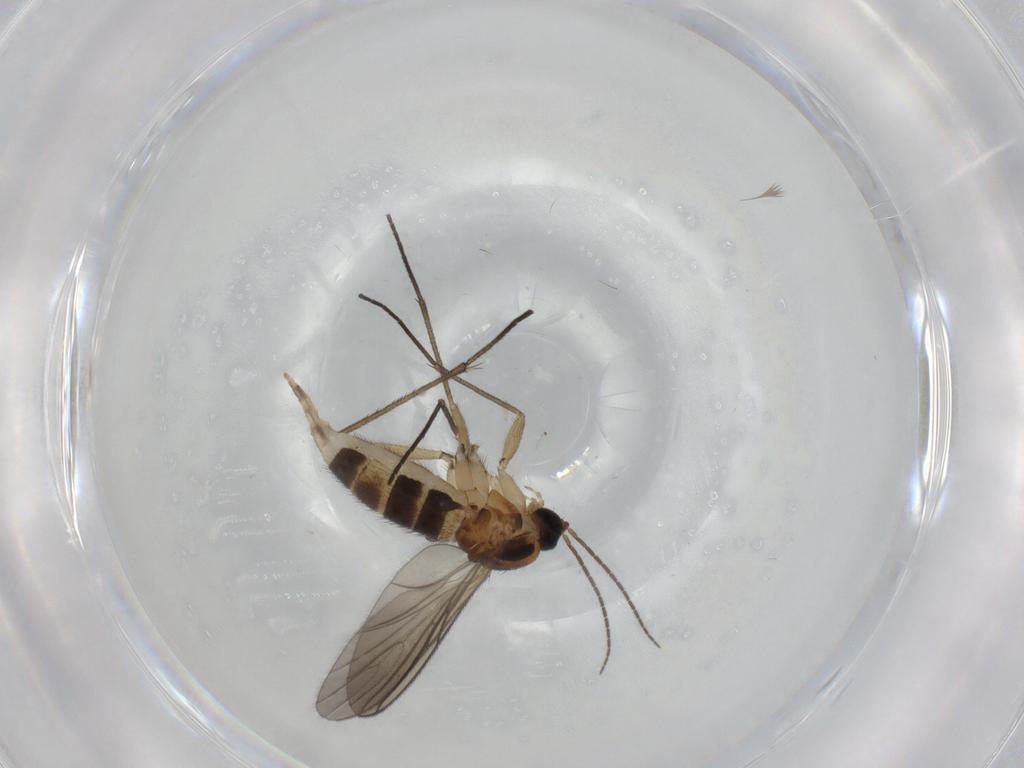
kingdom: Animalia
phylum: Arthropoda
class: Insecta
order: Diptera
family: Sciaridae
